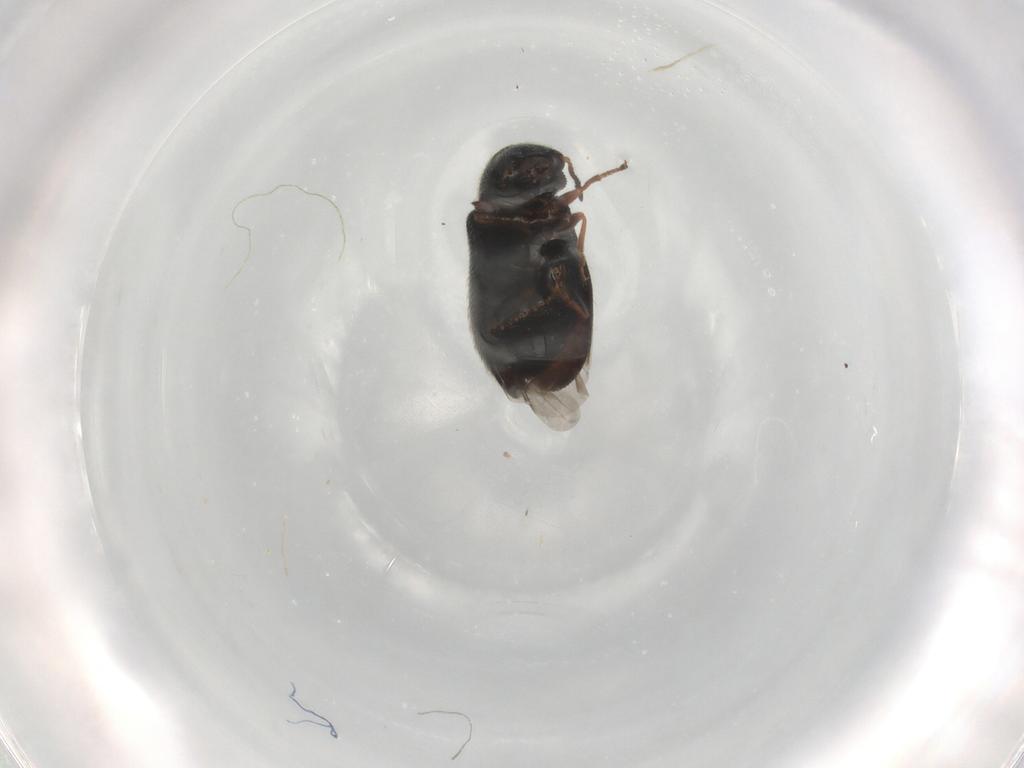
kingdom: Animalia
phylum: Arthropoda
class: Insecta
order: Coleoptera
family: Melyridae
